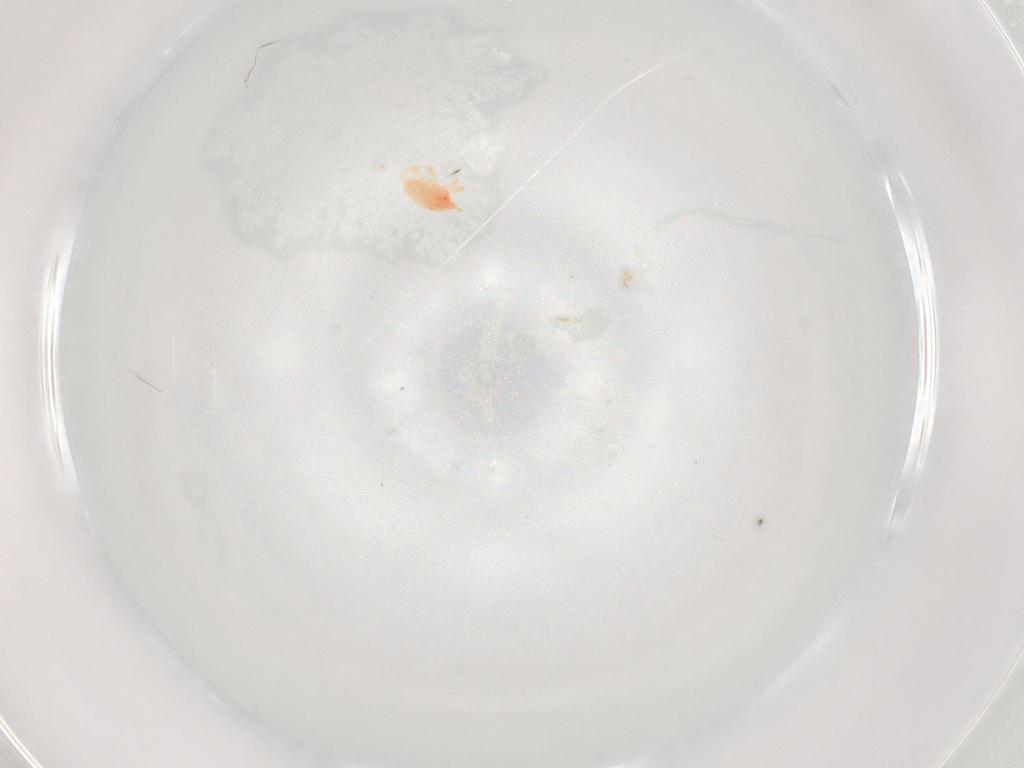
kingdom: Animalia
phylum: Arthropoda
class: Arachnida
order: Trombidiformes
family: Bdellidae
